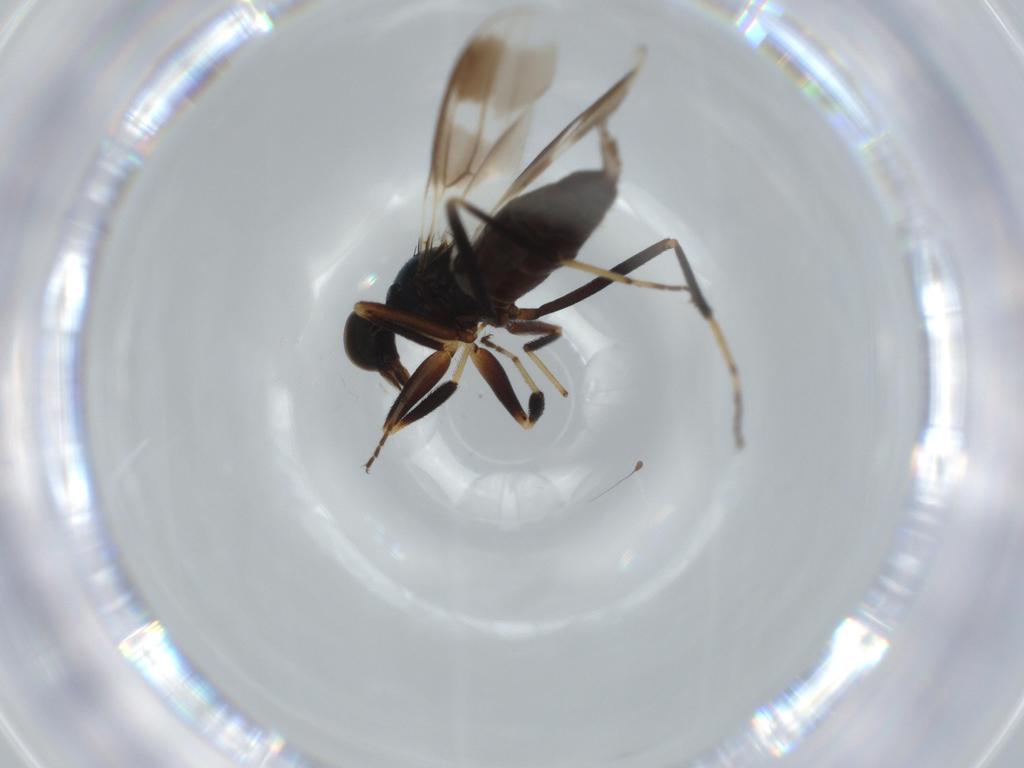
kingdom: Animalia
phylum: Arthropoda
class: Insecta
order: Diptera
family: Hybotidae
